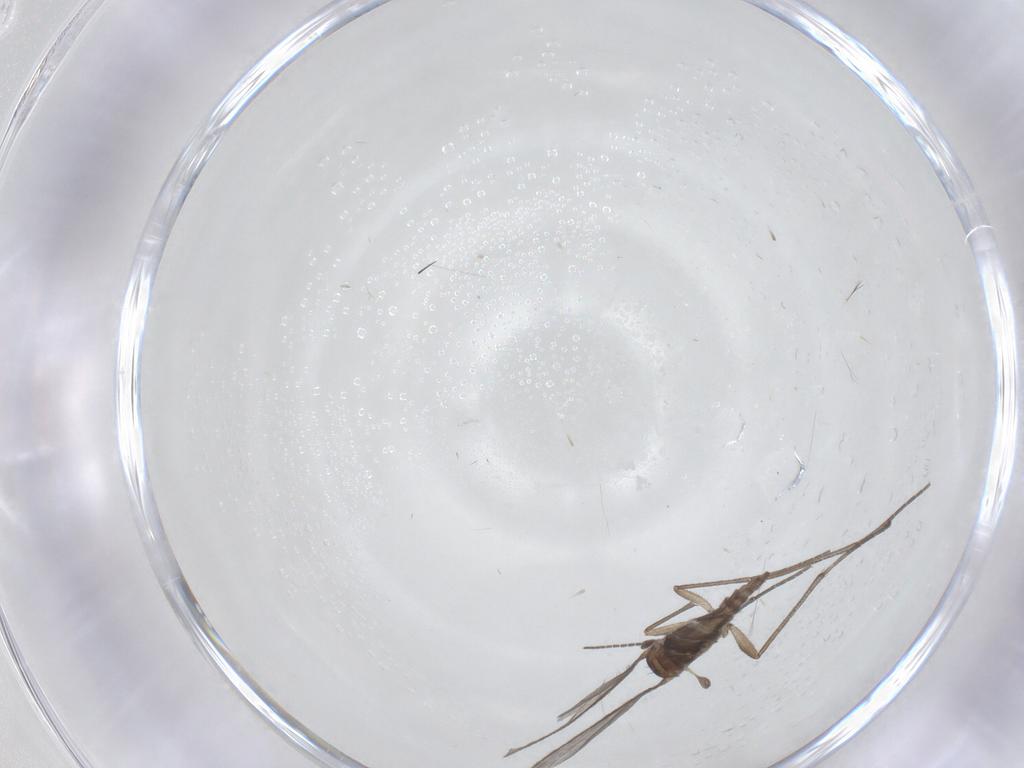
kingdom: Animalia
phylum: Arthropoda
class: Insecta
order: Diptera
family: Sciaridae
